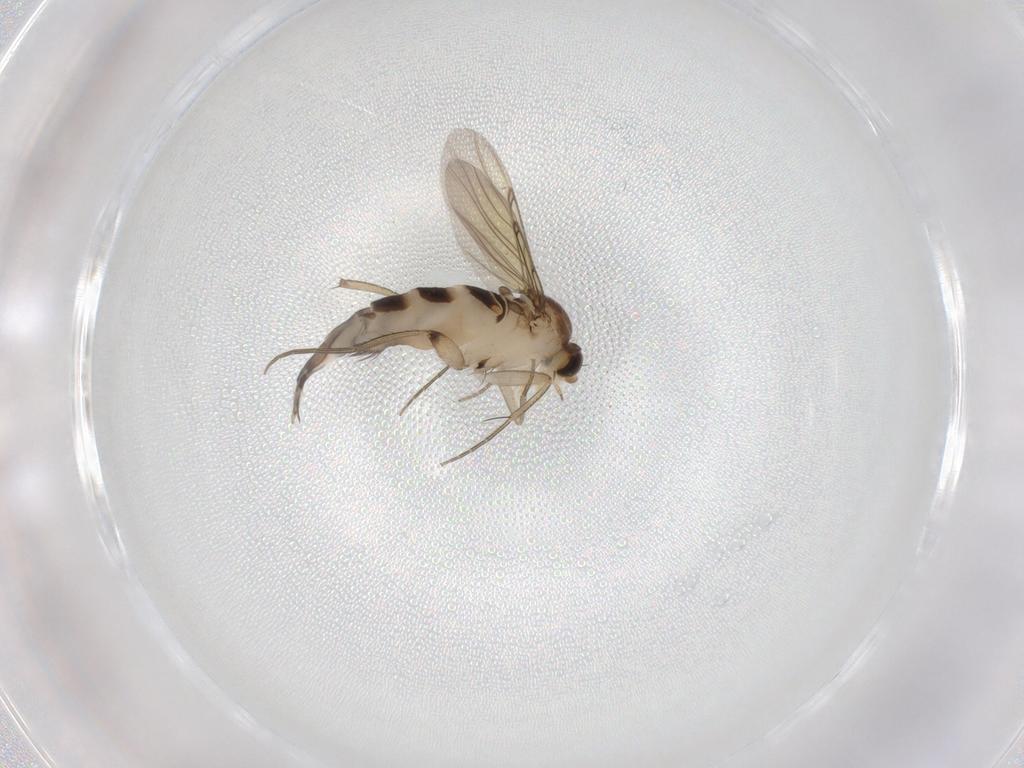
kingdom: Animalia
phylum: Arthropoda
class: Insecta
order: Diptera
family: Phoridae
